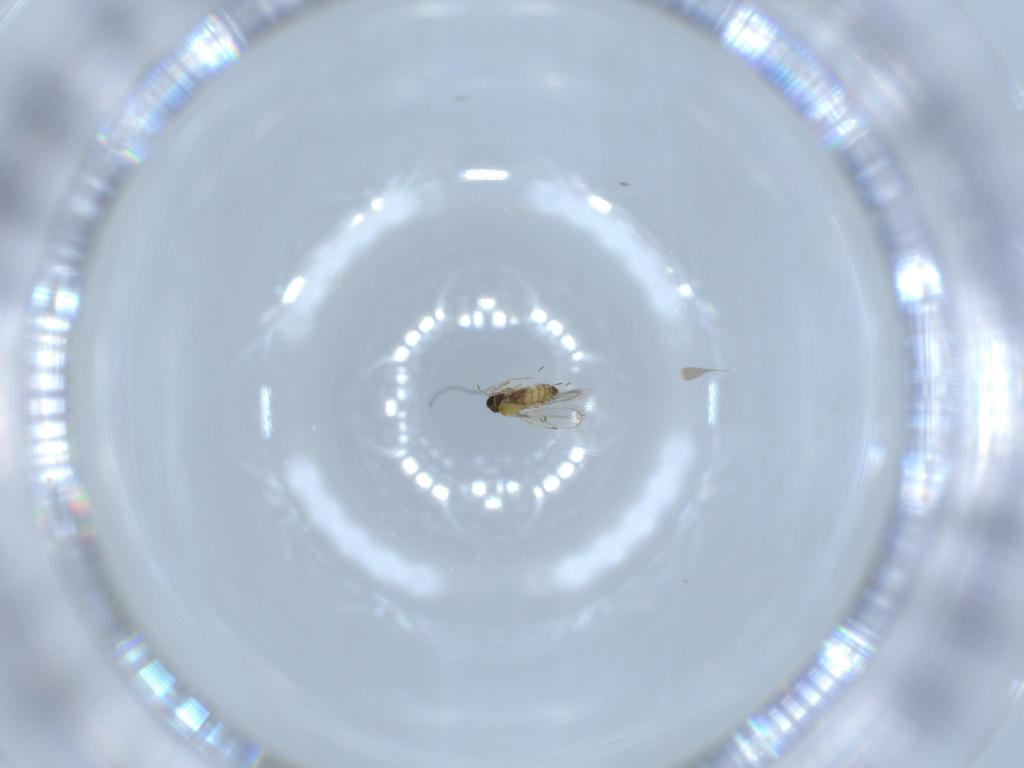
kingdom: Animalia
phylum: Arthropoda
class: Insecta
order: Hymenoptera
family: Trichogrammatidae
